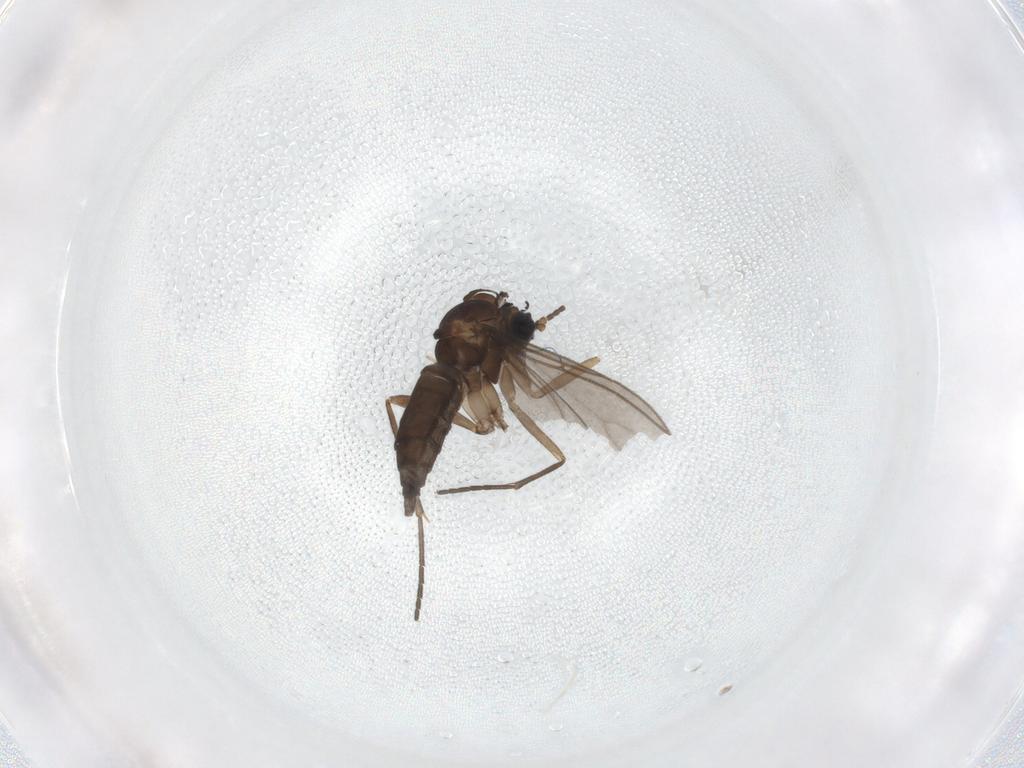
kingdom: Animalia
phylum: Arthropoda
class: Insecta
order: Diptera
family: Sciaridae
